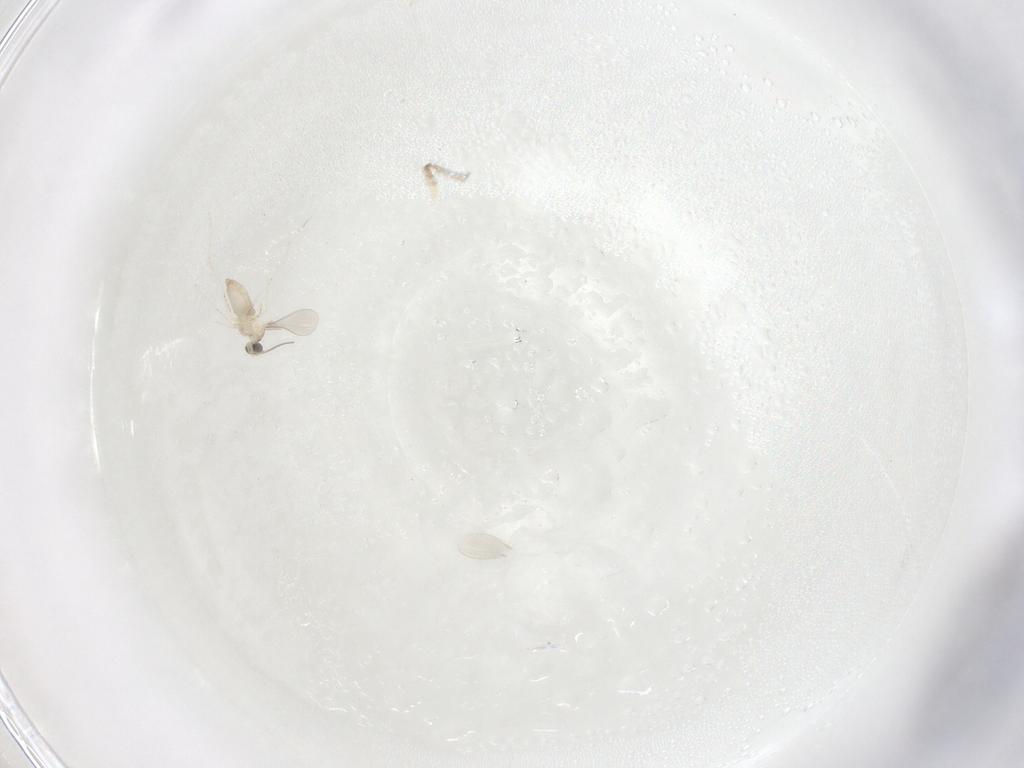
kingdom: Animalia
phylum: Arthropoda
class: Insecta
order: Diptera
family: Chironomidae
